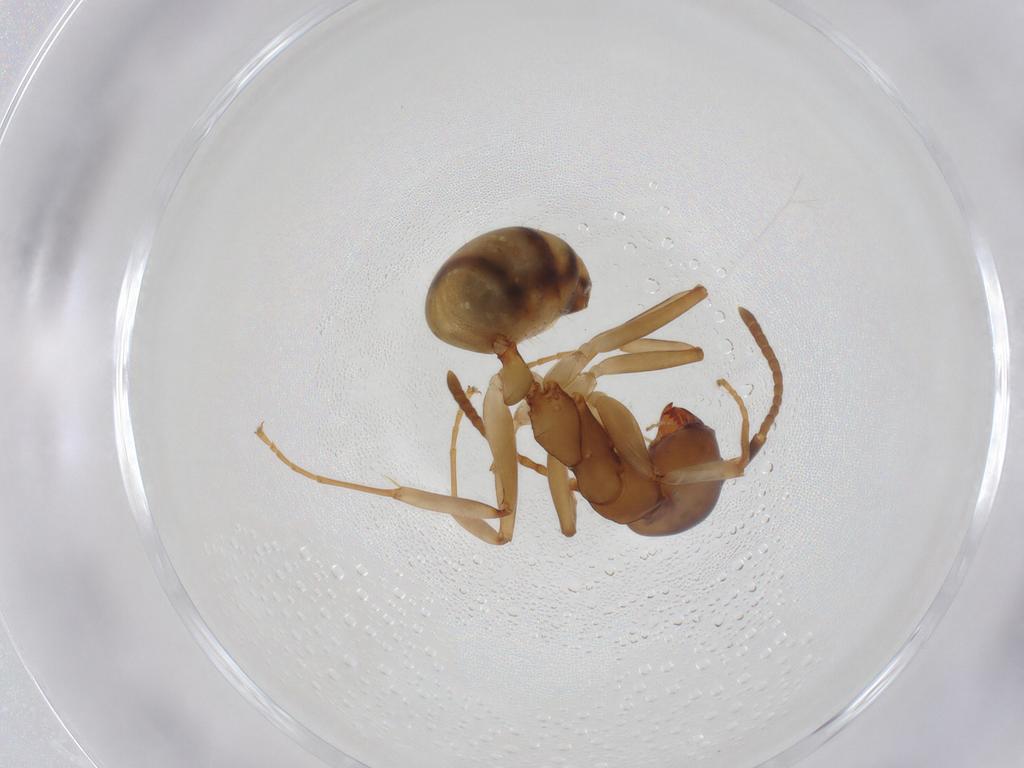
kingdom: Animalia
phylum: Arthropoda
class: Insecta
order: Hymenoptera
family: Formicidae
